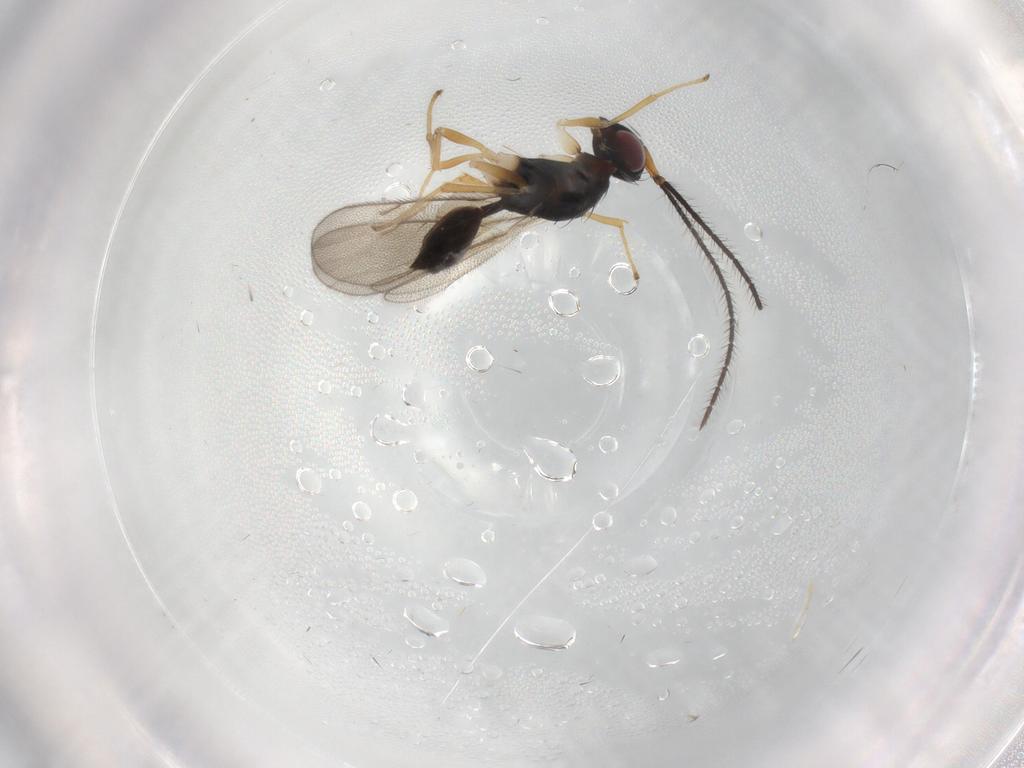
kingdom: Animalia
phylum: Arthropoda
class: Insecta
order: Hymenoptera
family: Diparidae
